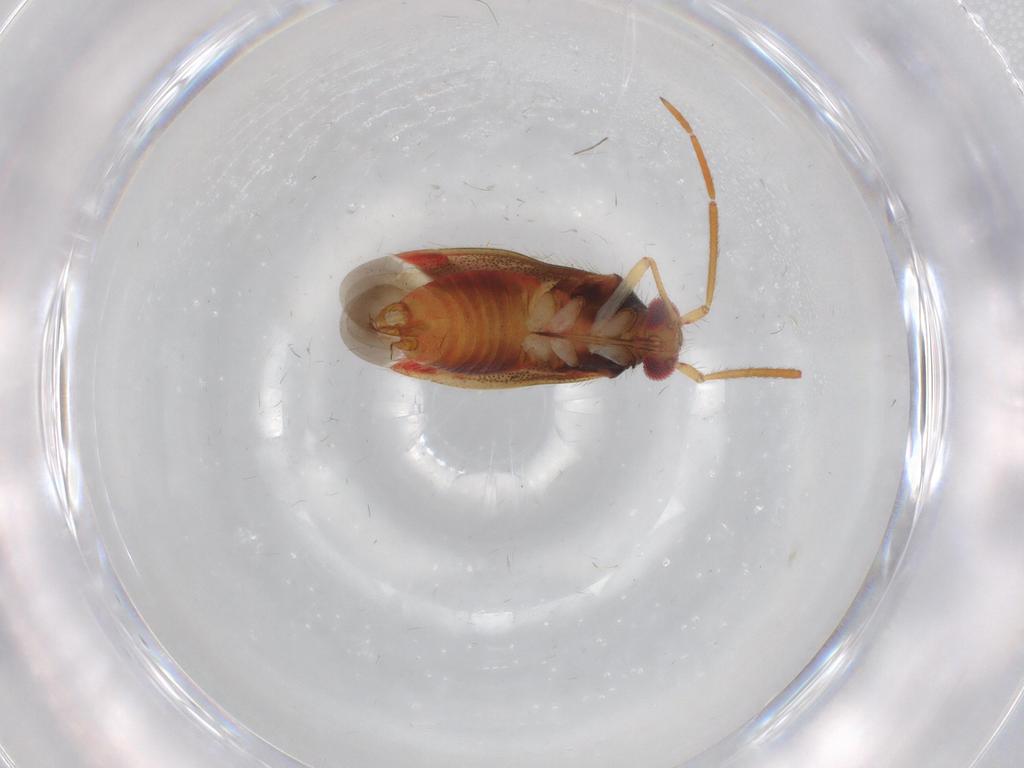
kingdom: Animalia
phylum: Arthropoda
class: Insecta
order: Hemiptera
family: Miridae
